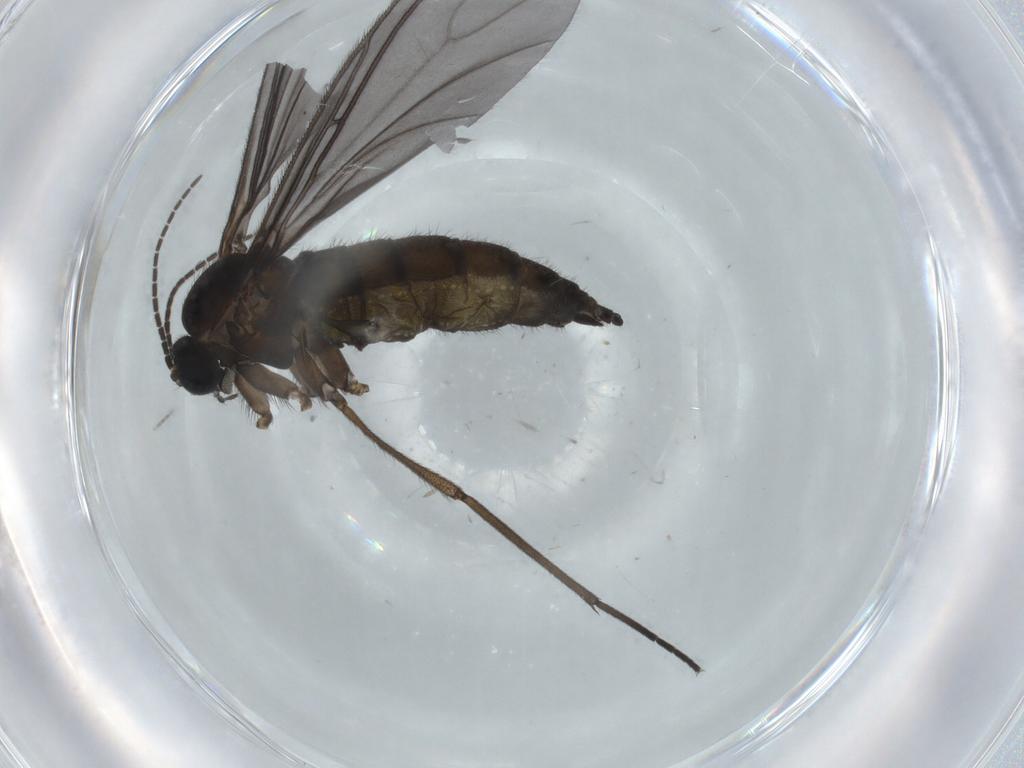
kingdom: Animalia
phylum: Arthropoda
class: Insecta
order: Diptera
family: Sciaridae
